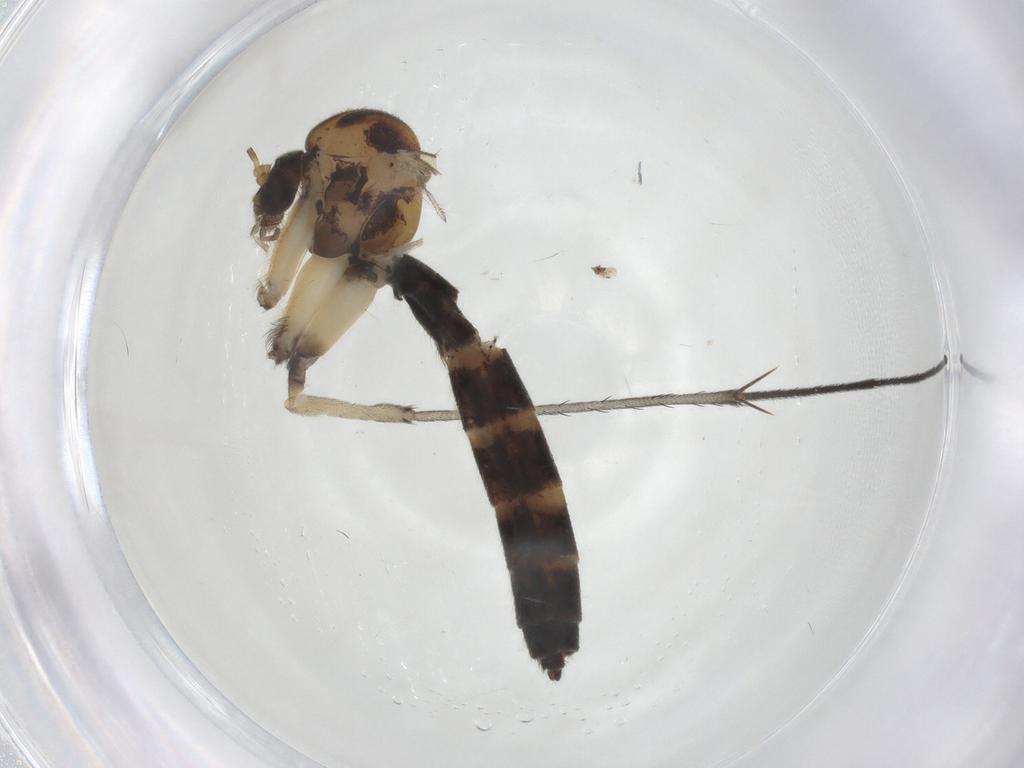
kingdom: Animalia
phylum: Arthropoda
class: Insecta
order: Diptera
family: Mycetophilidae
